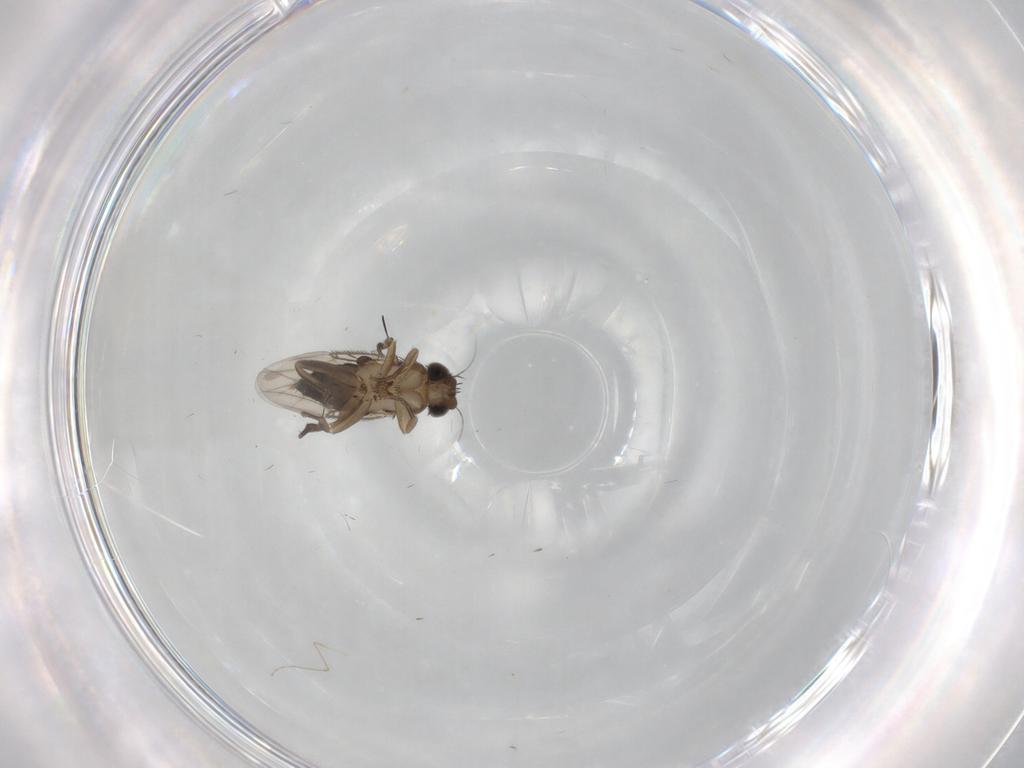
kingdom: Animalia
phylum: Arthropoda
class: Insecta
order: Diptera
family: Phoridae
